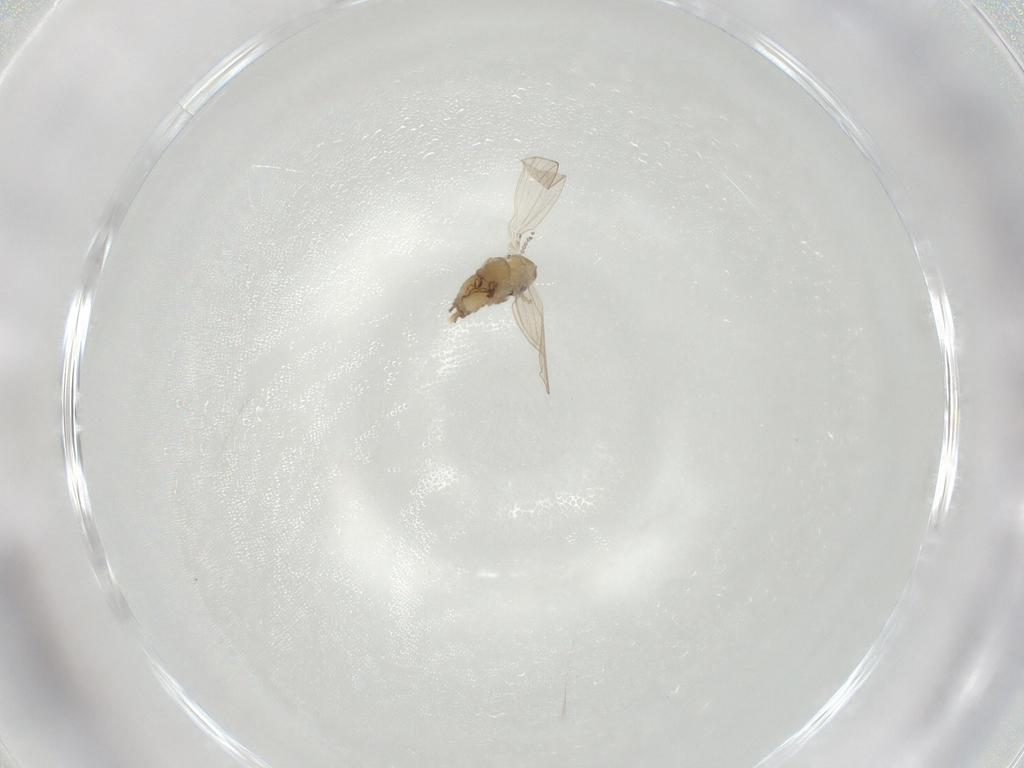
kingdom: Animalia
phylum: Arthropoda
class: Insecta
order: Diptera
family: Psychodidae
